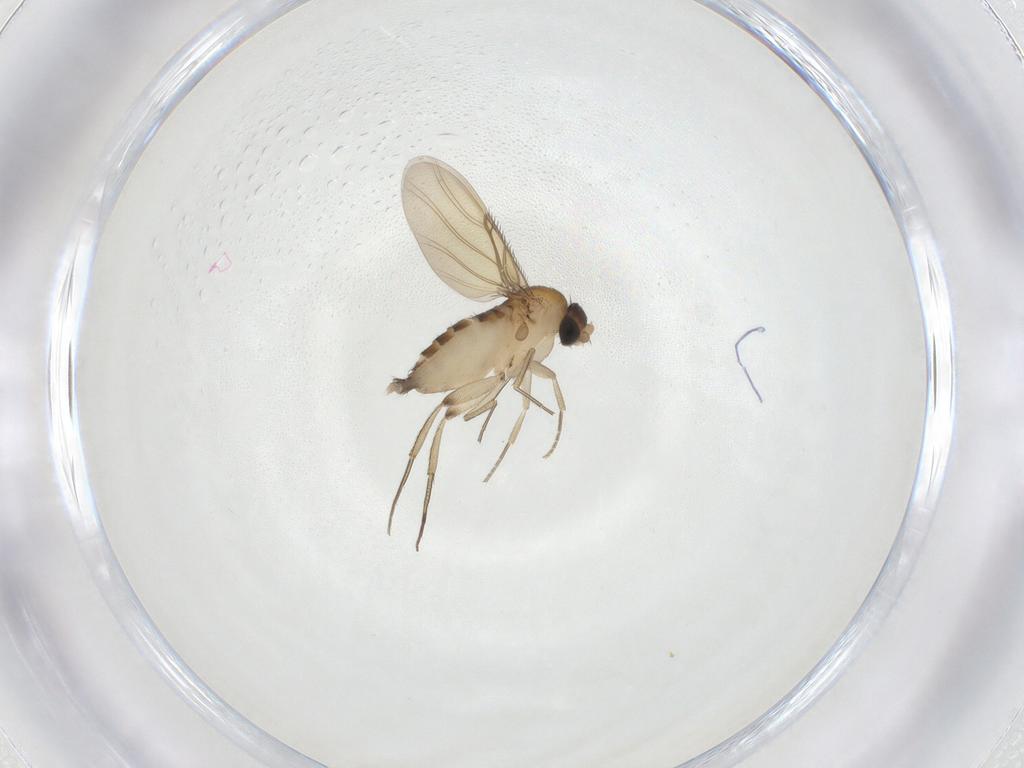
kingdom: Animalia
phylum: Arthropoda
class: Insecta
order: Diptera
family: Phoridae
